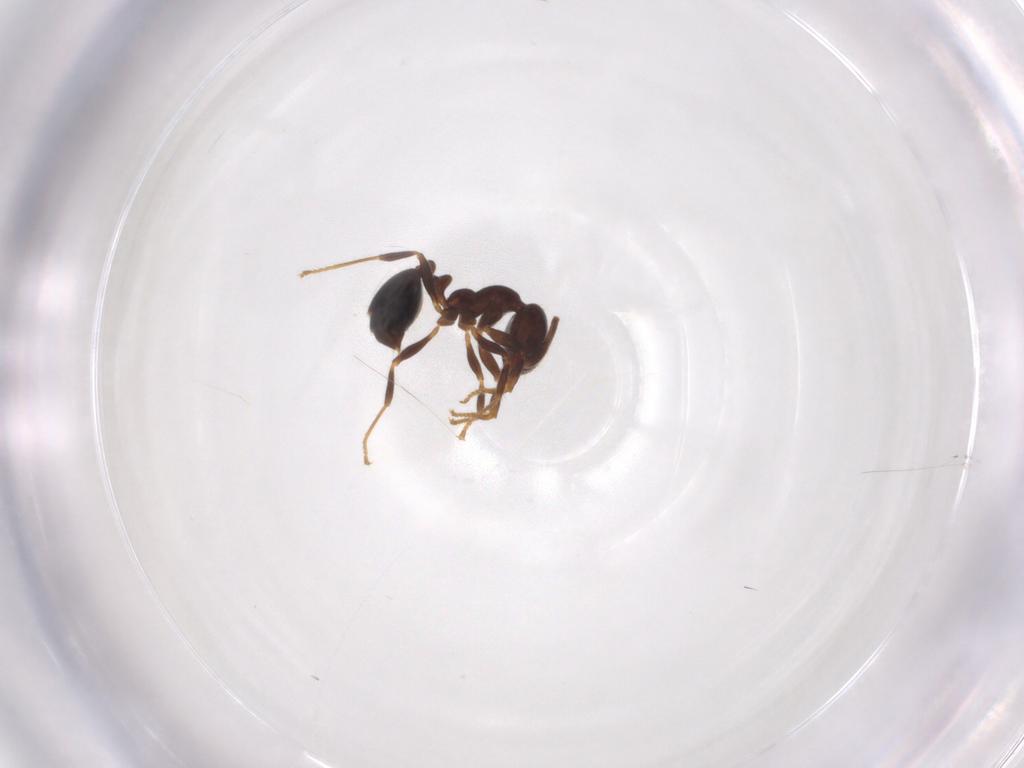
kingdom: Animalia
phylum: Arthropoda
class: Insecta
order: Hymenoptera
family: Formicidae
